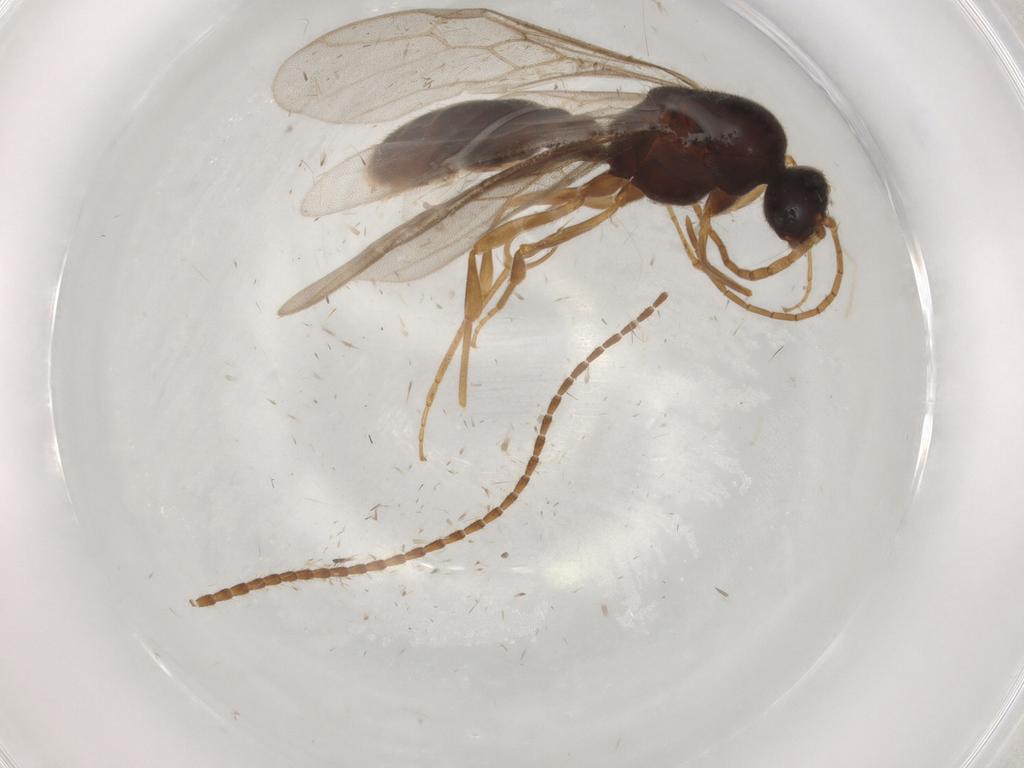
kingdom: Animalia
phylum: Arthropoda
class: Insecta
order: Hymenoptera
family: Formicidae
